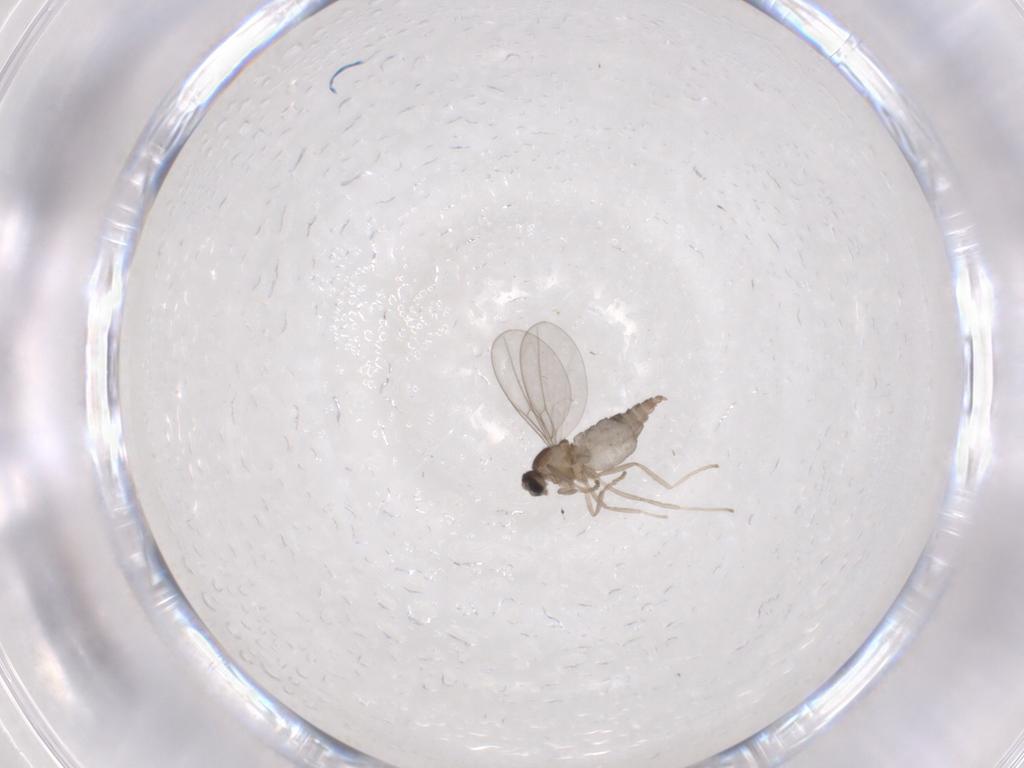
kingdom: Animalia
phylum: Arthropoda
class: Insecta
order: Diptera
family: Cecidomyiidae
